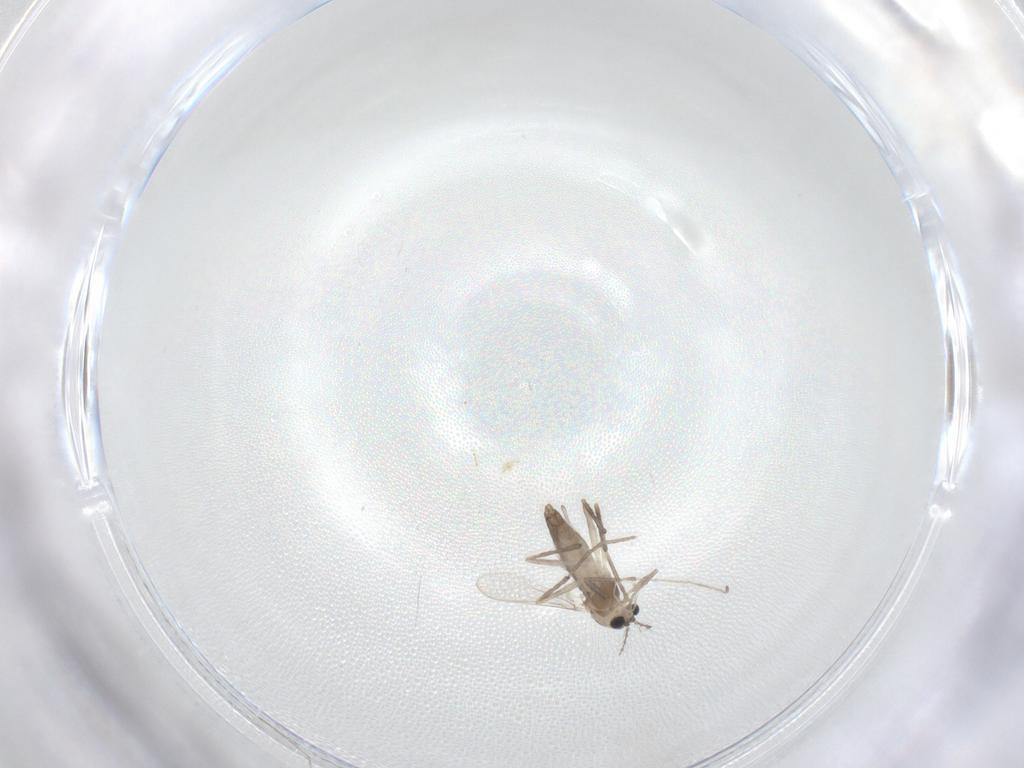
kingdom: Animalia
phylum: Arthropoda
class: Insecta
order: Diptera
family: Chironomidae
